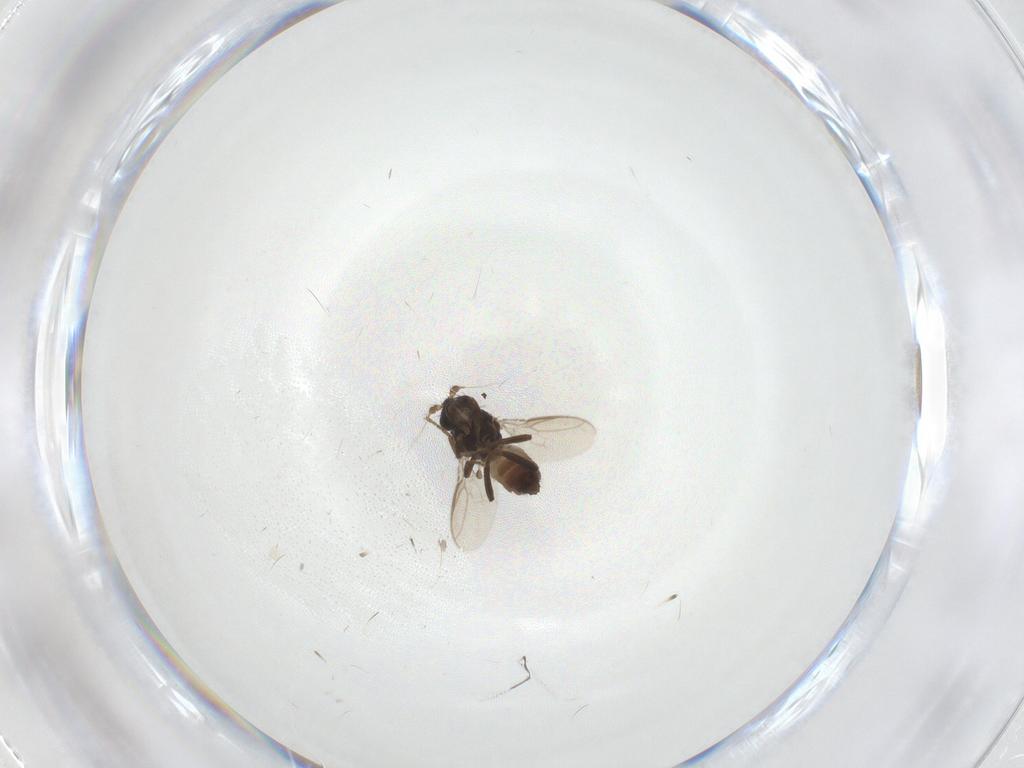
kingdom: Animalia
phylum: Arthropoda
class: Insecta
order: Diptera
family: Sphaeroceridae
